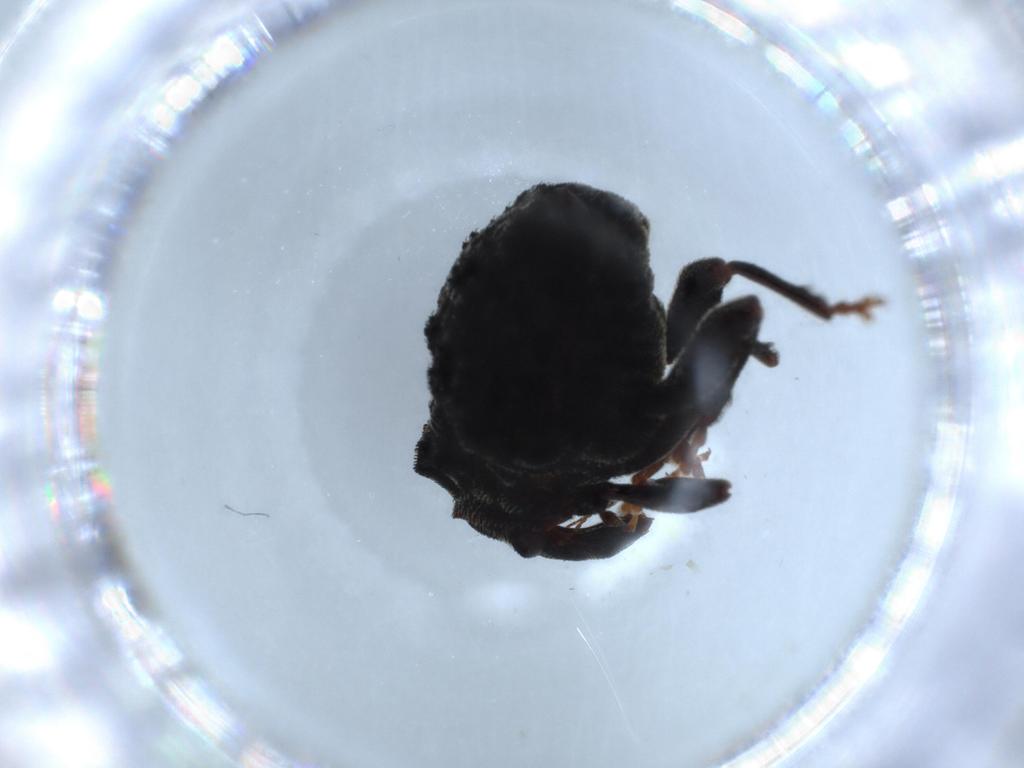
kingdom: Animalia
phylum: Arthropoda
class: Insecta
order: Coleoptera
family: Curculionidae
